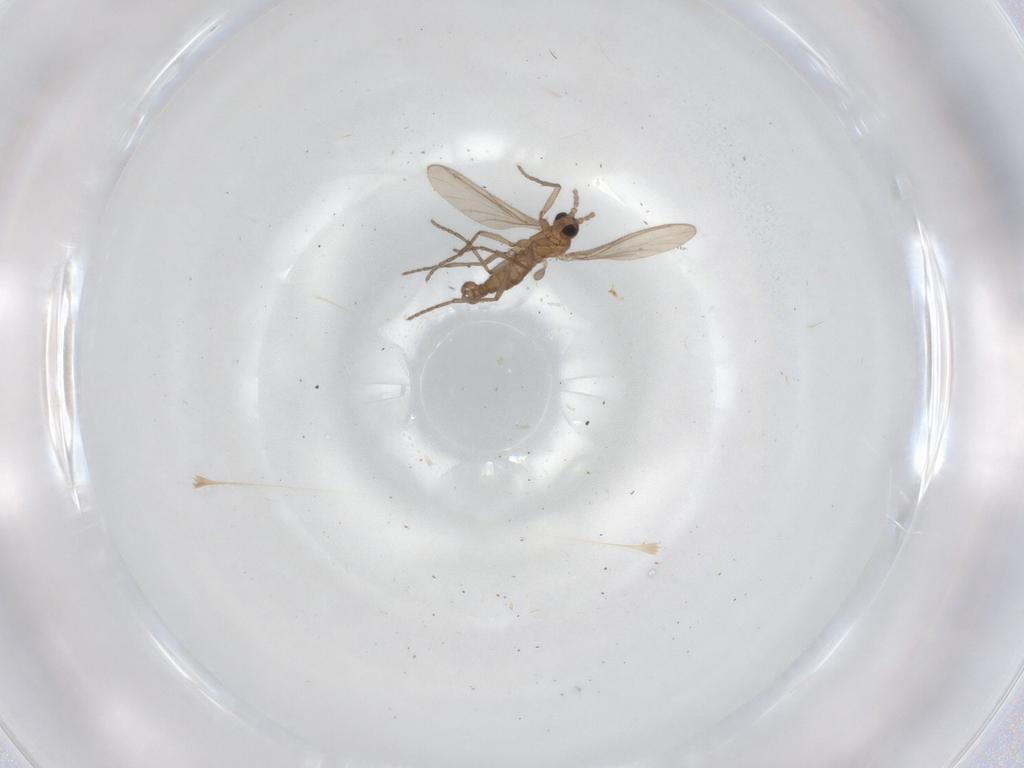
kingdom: Animalia
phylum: Arthropoda
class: Insecta
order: Diptera
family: Sciaridae
